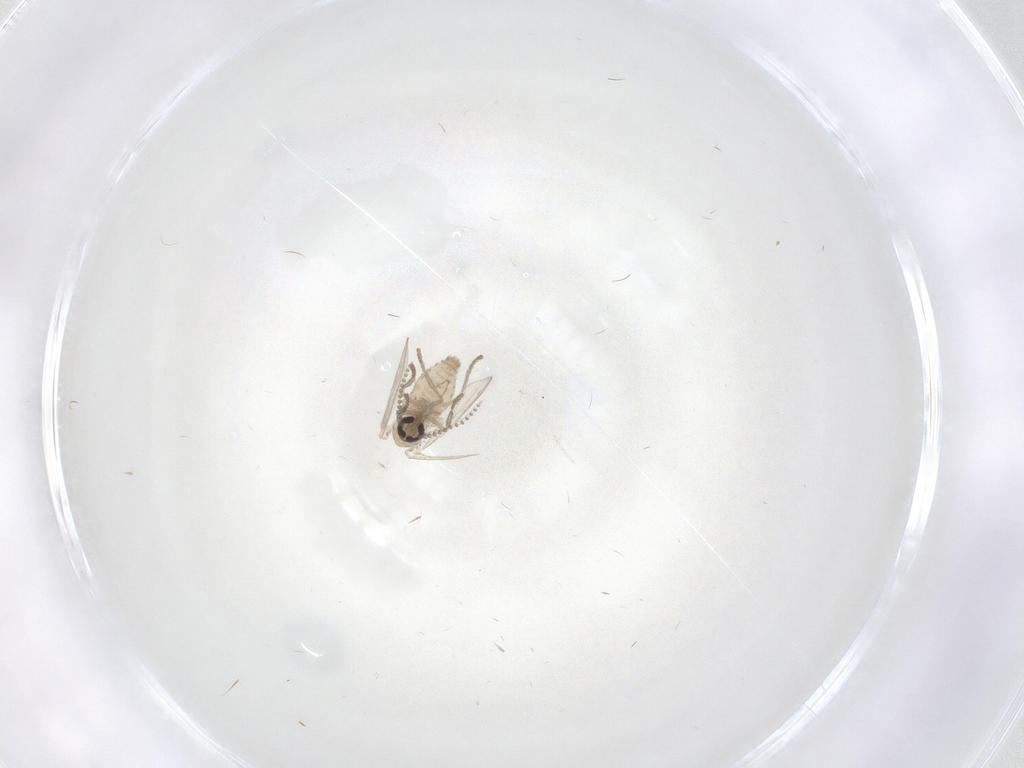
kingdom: Animalia
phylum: Arthropoda
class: Insecta
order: Diptera
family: Psychodidae
